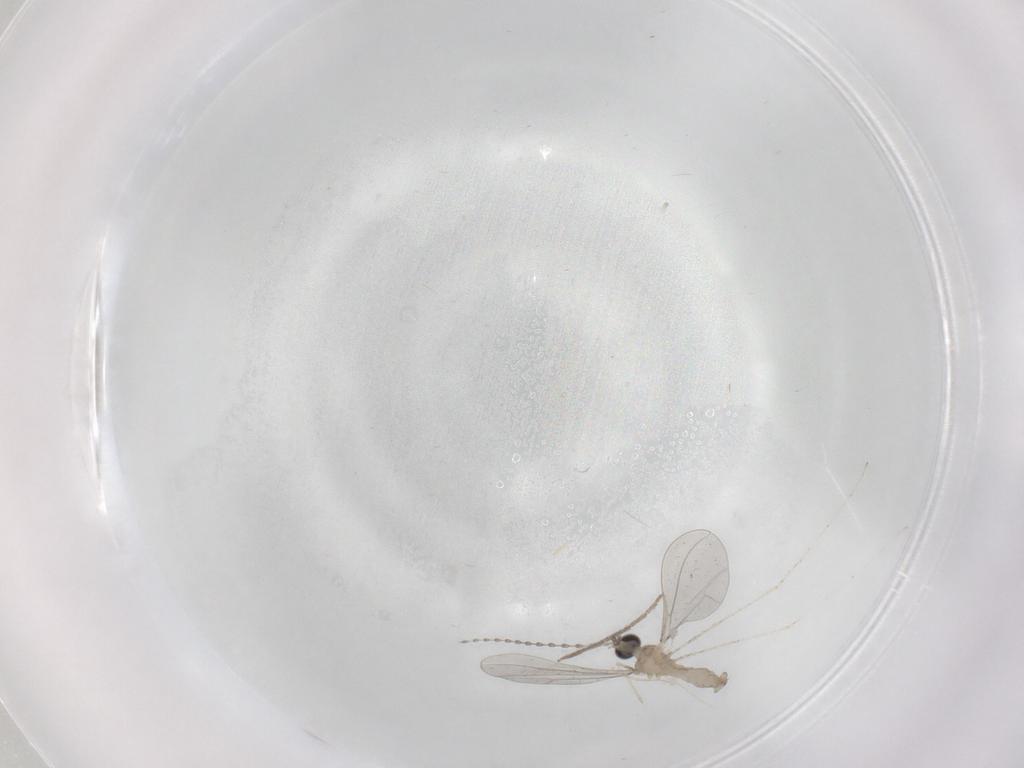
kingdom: Animalia
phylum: Arthropoda
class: Insecta
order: Diptera
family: Cecidomyiidae
